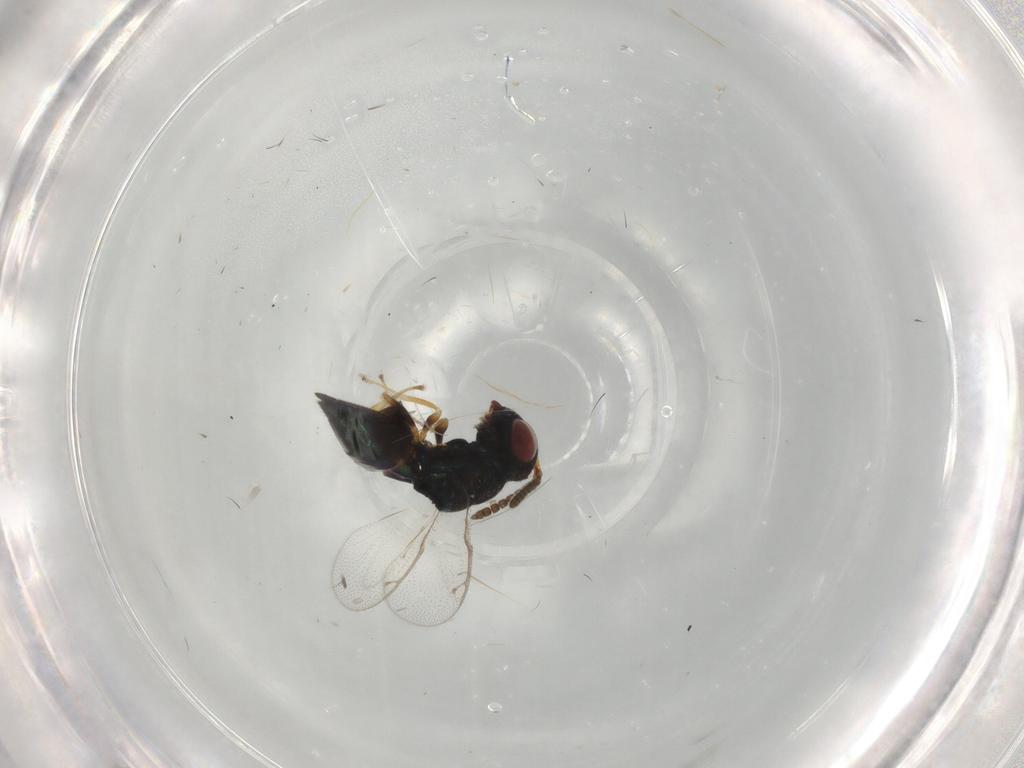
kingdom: Animalia
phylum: Arthropoda
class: Insecta
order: Hymenoptera
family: Pteromalidae
